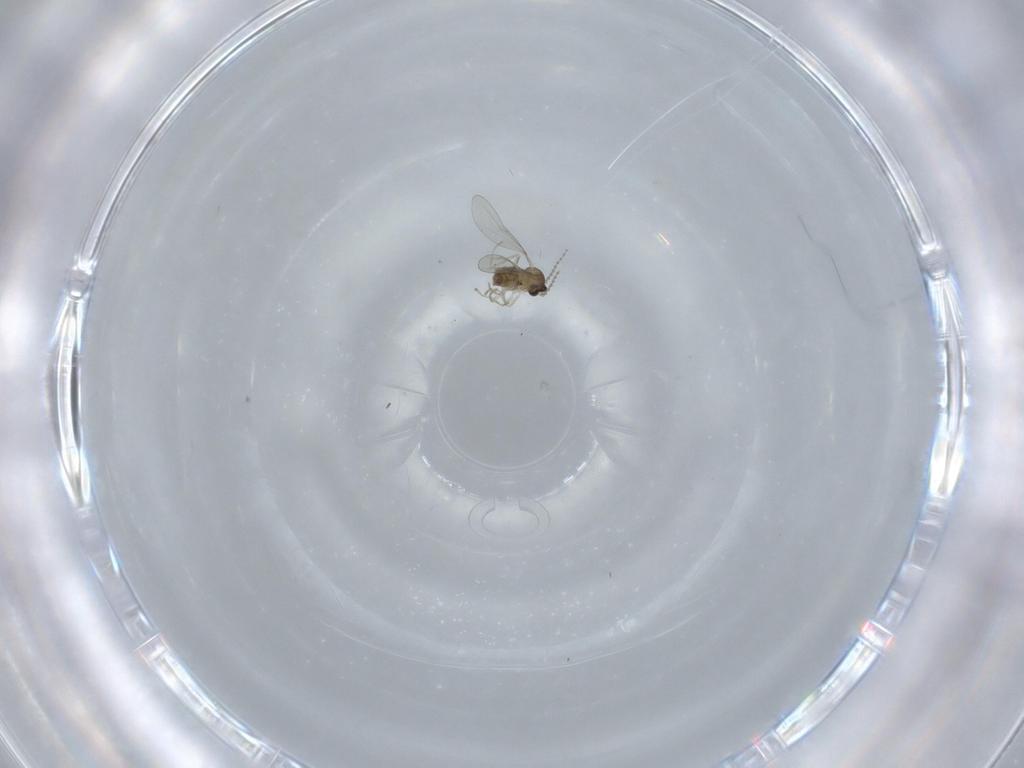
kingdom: Animalia
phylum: Arthropoda
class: Insecta
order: Diptera
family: Cecidomyiidae
